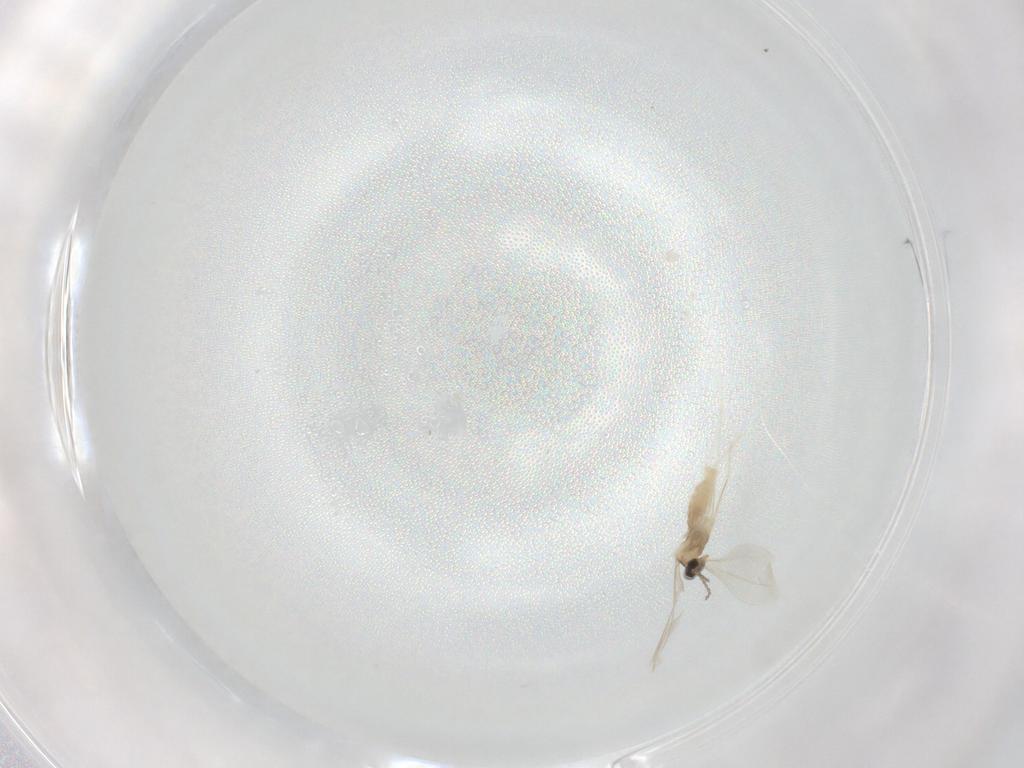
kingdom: Animalia
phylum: Arthropoda
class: Insecta
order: Diptera
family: Cecidomyiidae
